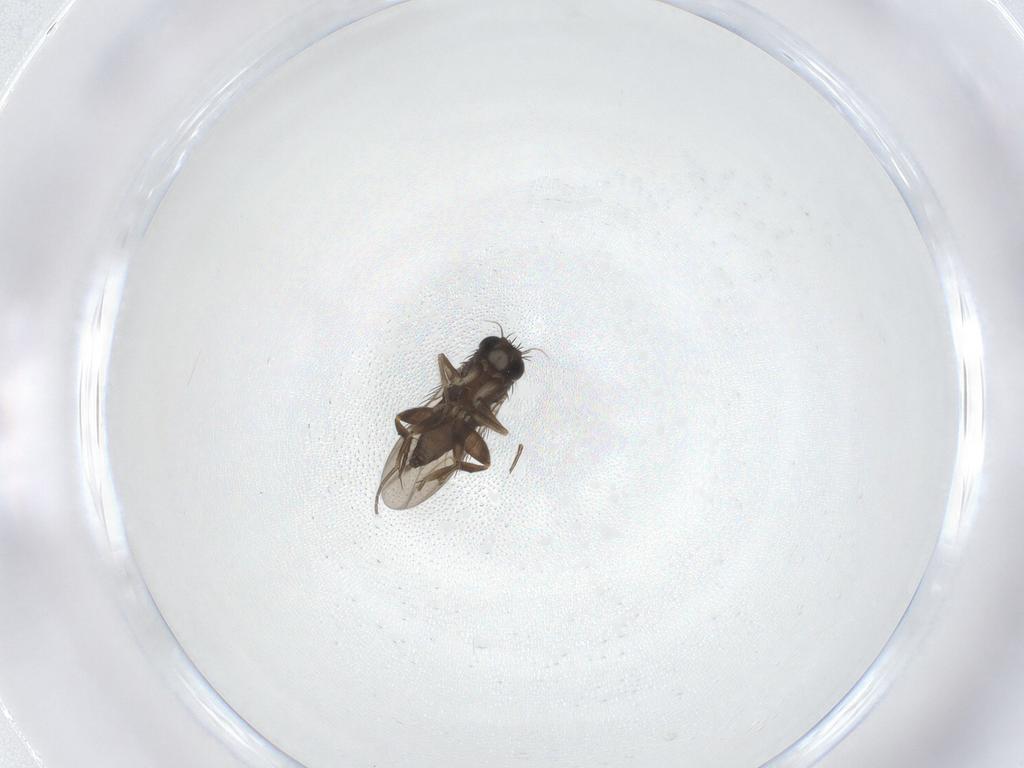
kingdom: Animalia
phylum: Arthropoda
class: Insecta
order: Diptera
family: Phoridae
